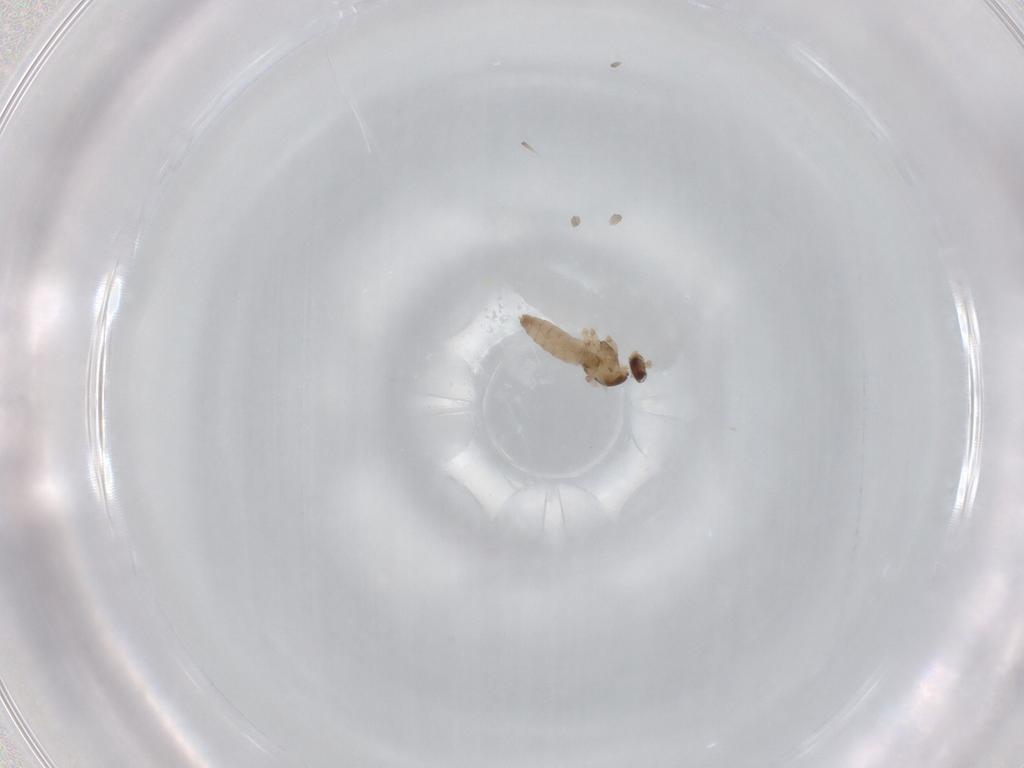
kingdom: Animalia
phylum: Arthropoda
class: Insecta
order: Diptera
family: Cecidomyiidae
